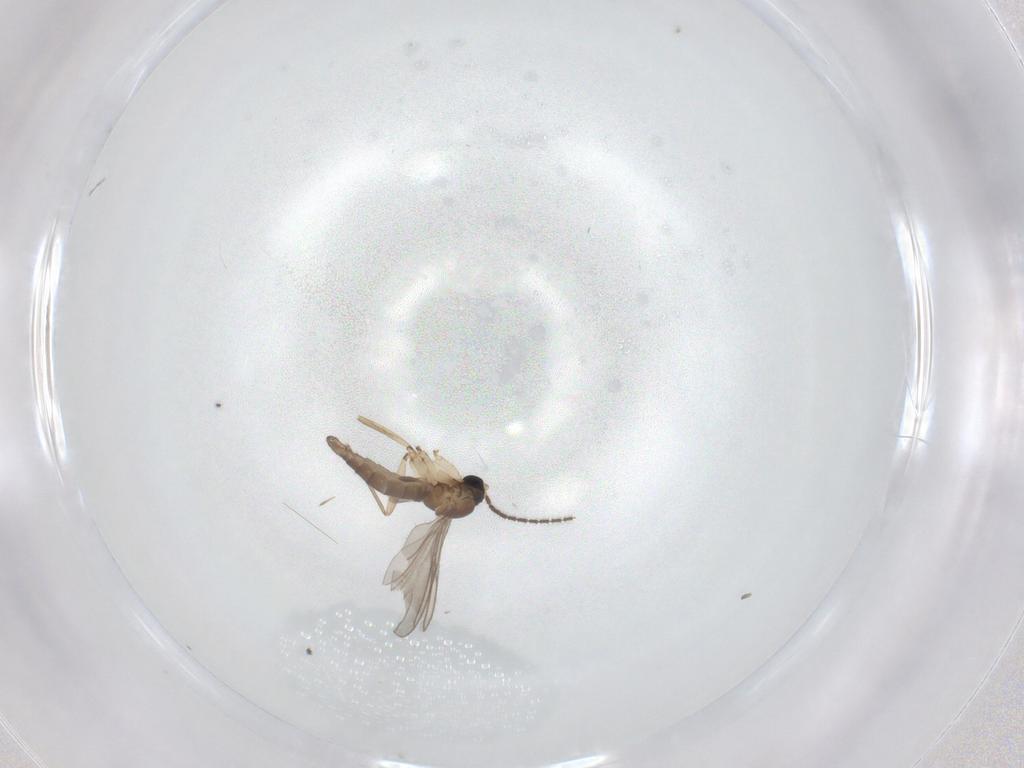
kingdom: Animalia
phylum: Arthropoda
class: Insecta
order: Diptera
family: Sciaridae
